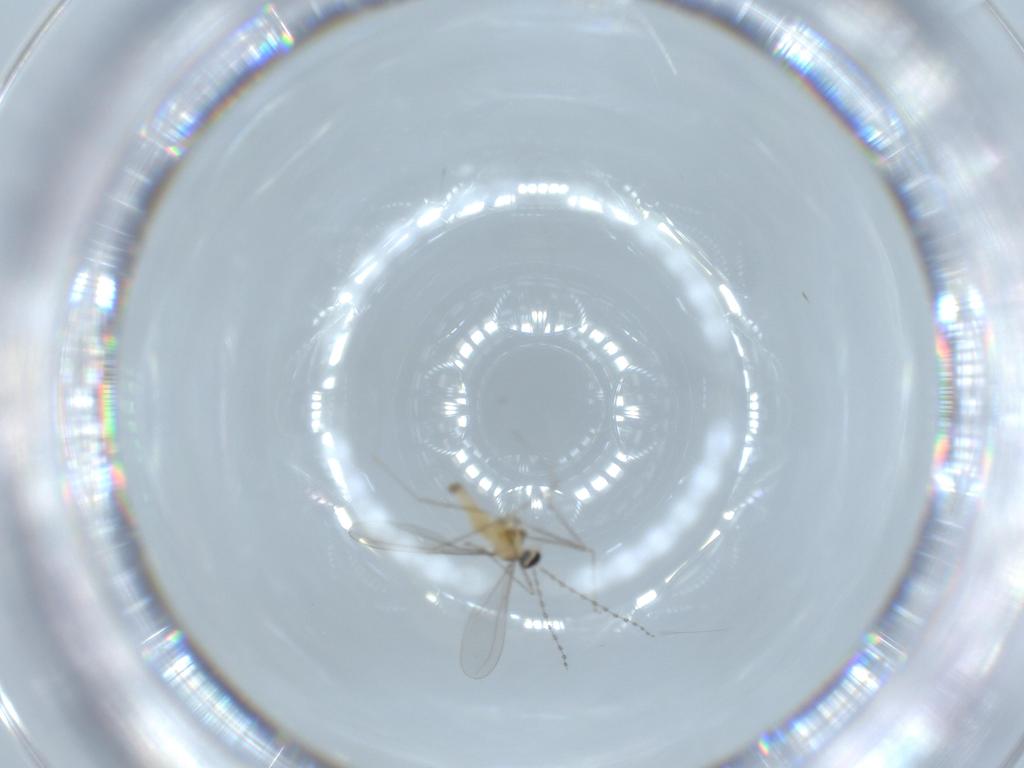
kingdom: Animalia
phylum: Arthropoda
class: Insecta
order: Diptera
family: Cecidomyiidae
